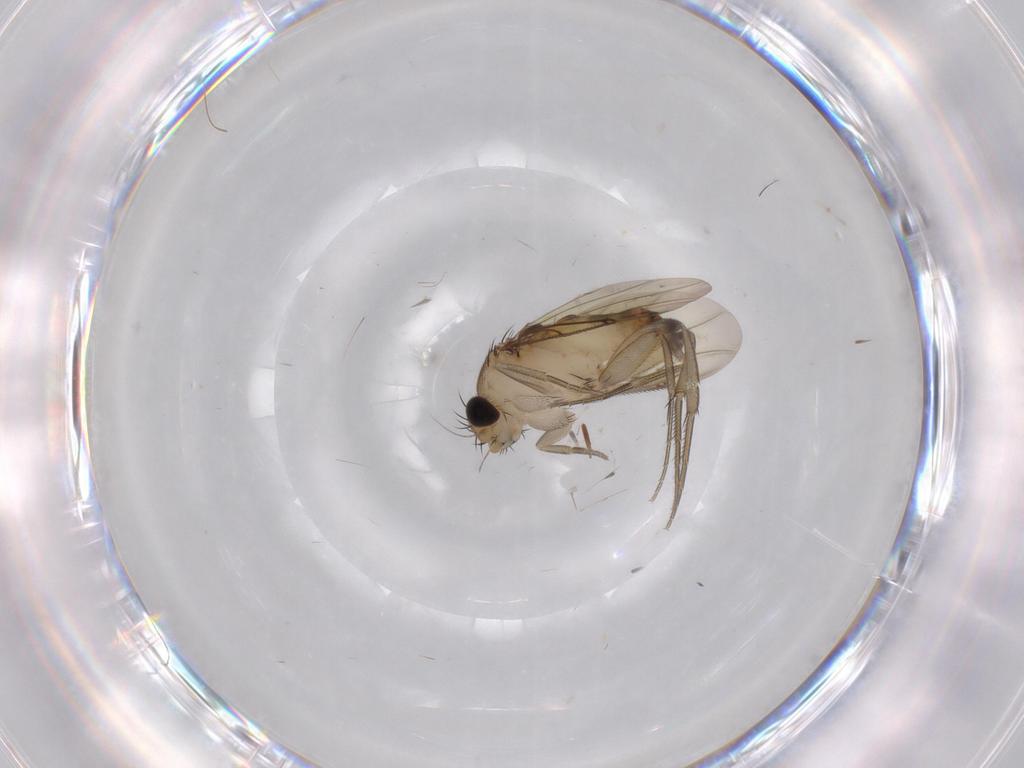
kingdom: Animalia
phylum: Arthropoda
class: Insecta
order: Diptera
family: Phoridae
